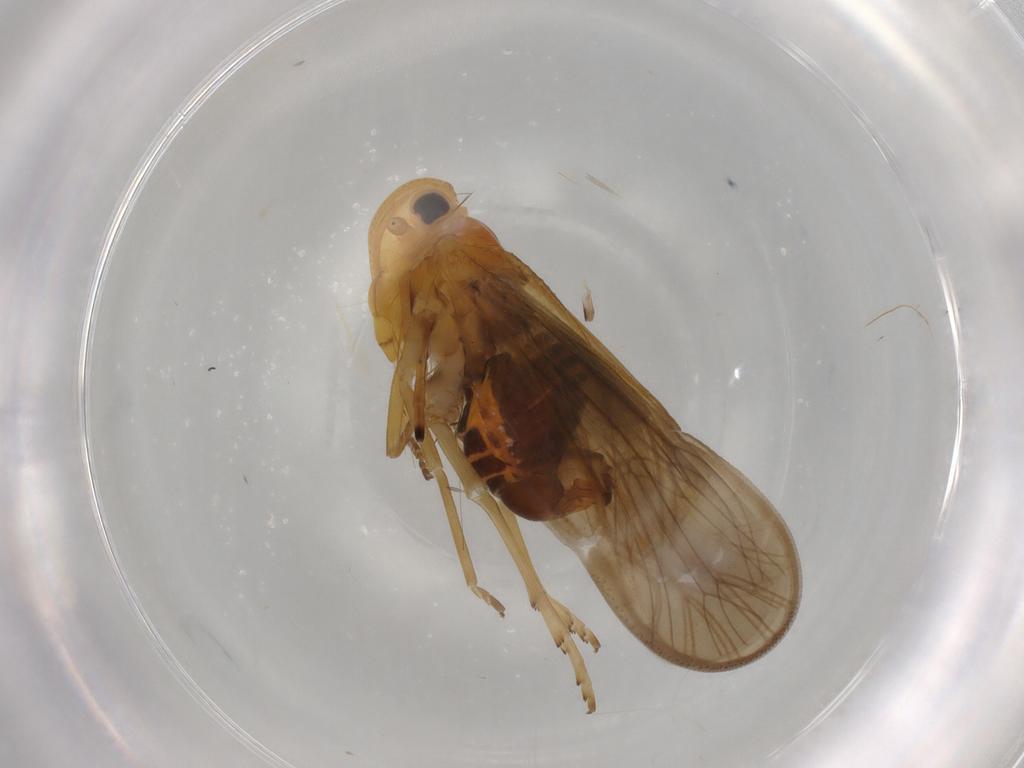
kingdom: Animalia
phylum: Arthropoda
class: Insecta
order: Hemiptera
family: Meenoplidae
